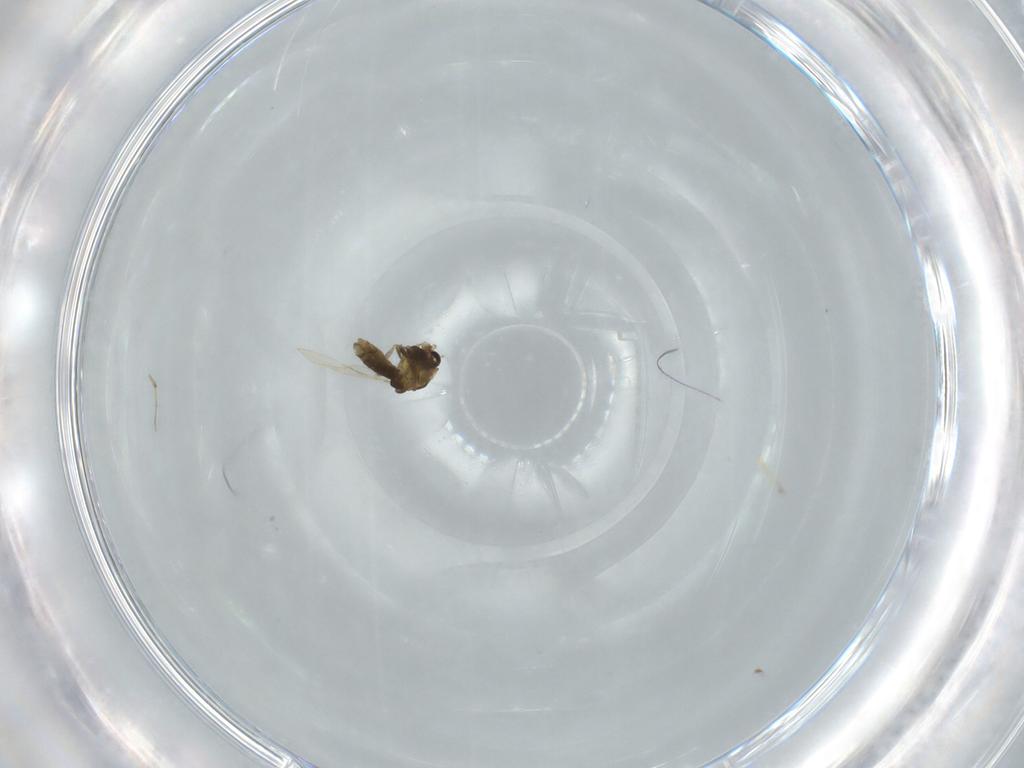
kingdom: Animalia
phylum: Arthropoda
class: Insecta
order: Diptera
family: Chironomidae
